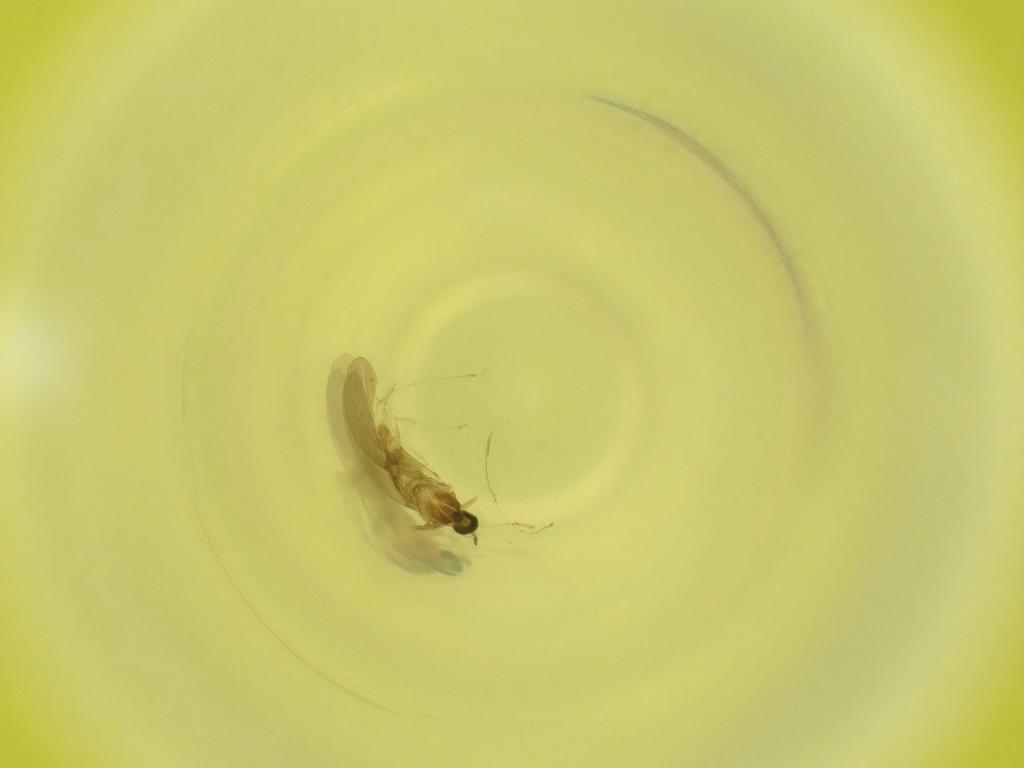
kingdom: Animalia
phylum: Arthropoda
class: Insecta
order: Diptera
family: Cecidomyiidae
